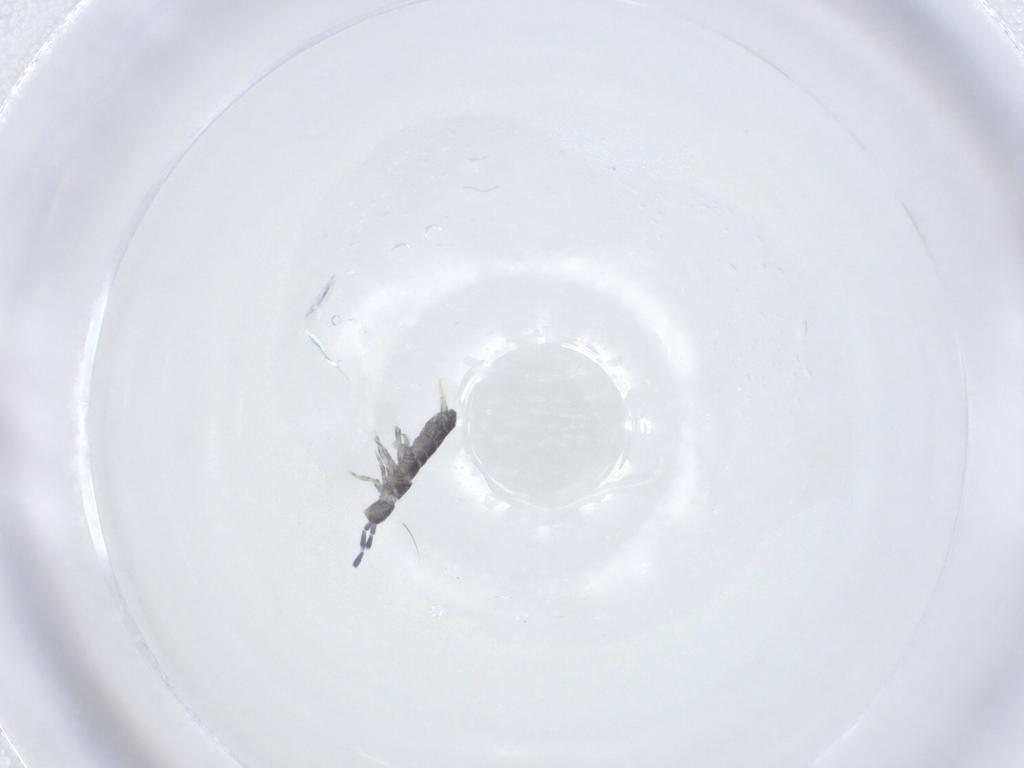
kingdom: Animalia
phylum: Arthropoda
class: Collembola
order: Entomobryomorpha
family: Isotomidae
